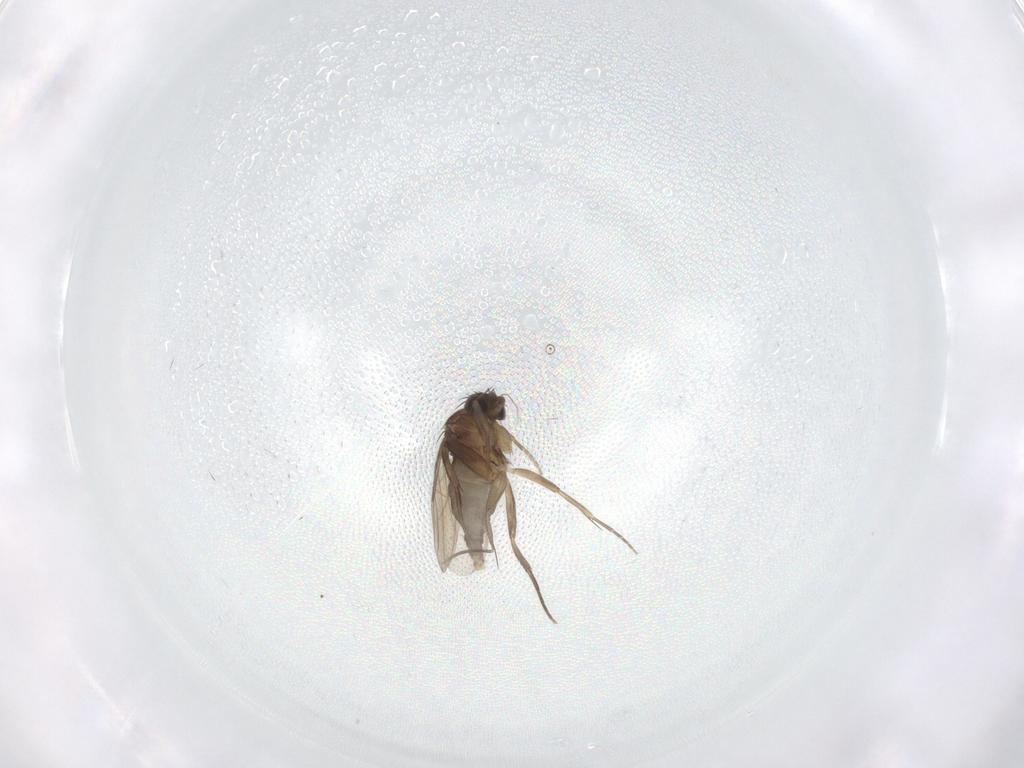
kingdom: Animalia
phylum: Arthropoda
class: Insecta
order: Diptera
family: Phoridae
